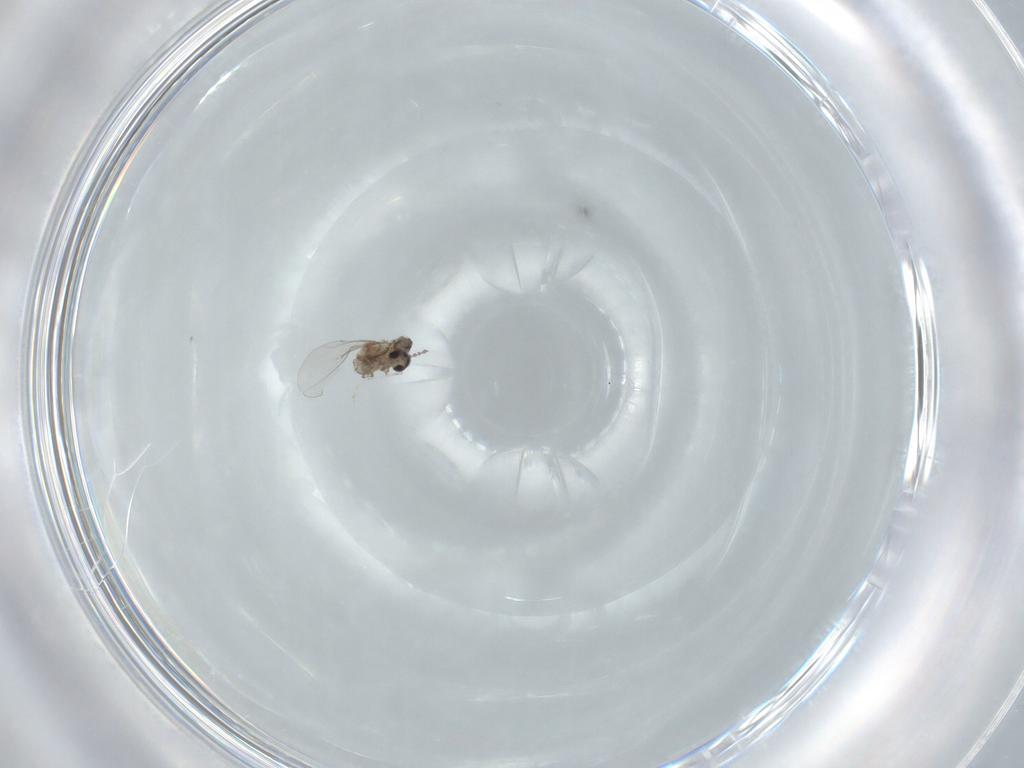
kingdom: Animalia
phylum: Arthropoda
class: Insecta
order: Diptera
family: Cecidomyiidae
